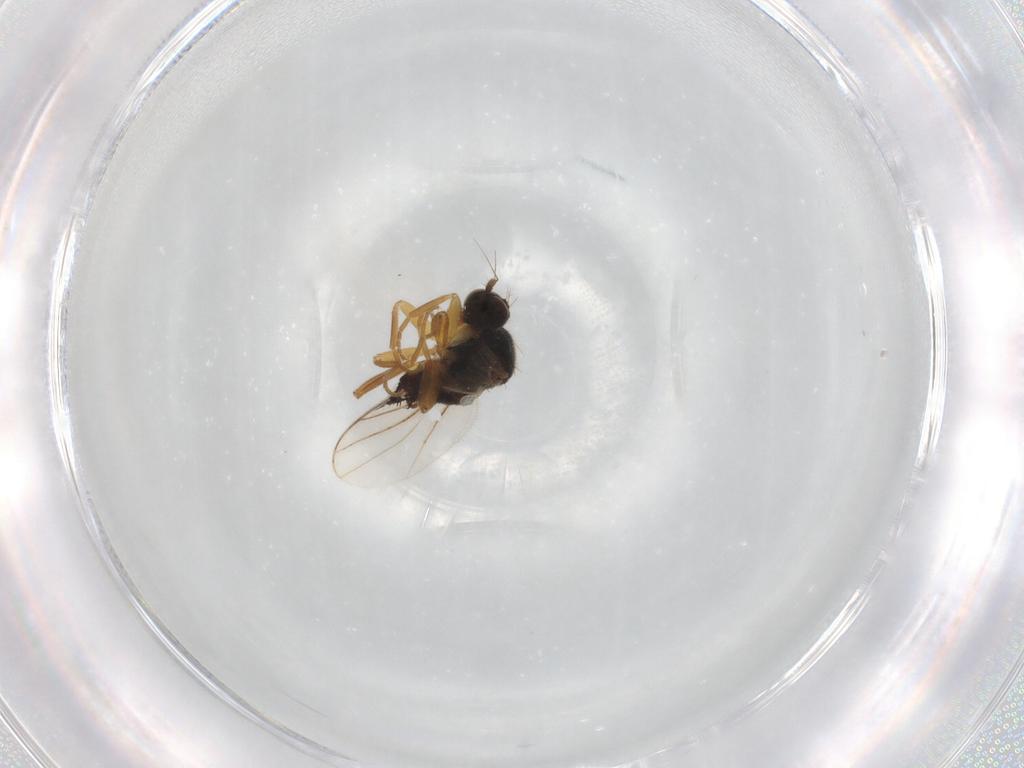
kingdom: Animalia
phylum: Arthropoda
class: Insecta
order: Diptera
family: Hybotidae
